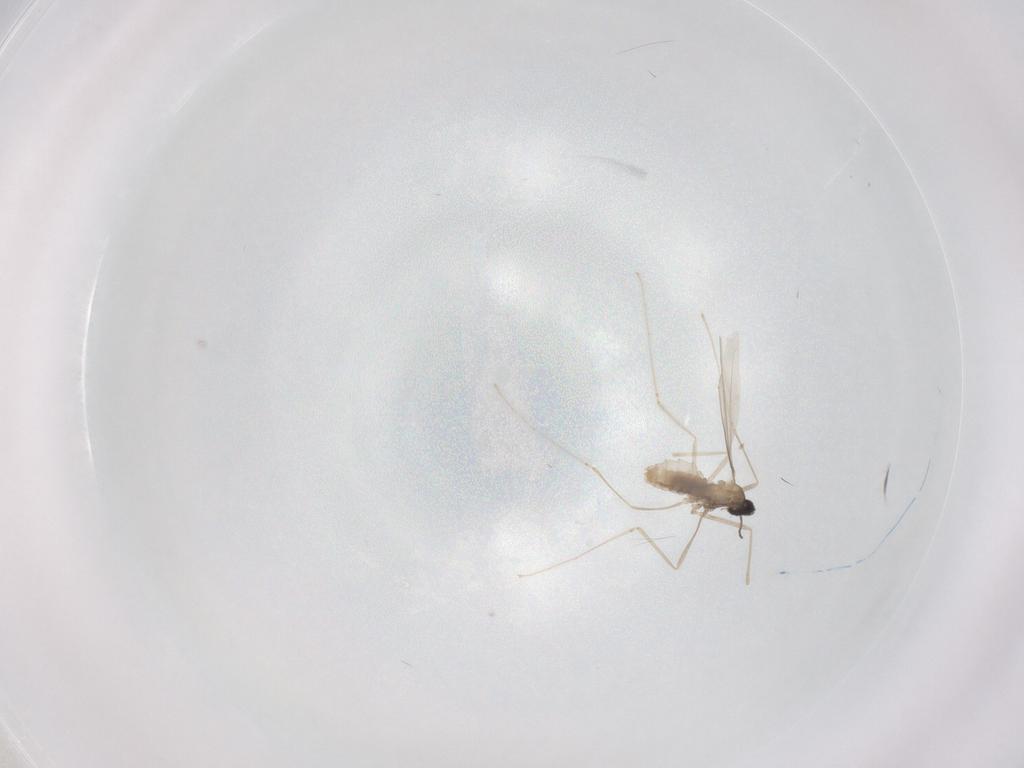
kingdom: Animalia
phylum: Arthropoda
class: Insecta
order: Diptera
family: Cecidomyiidae
